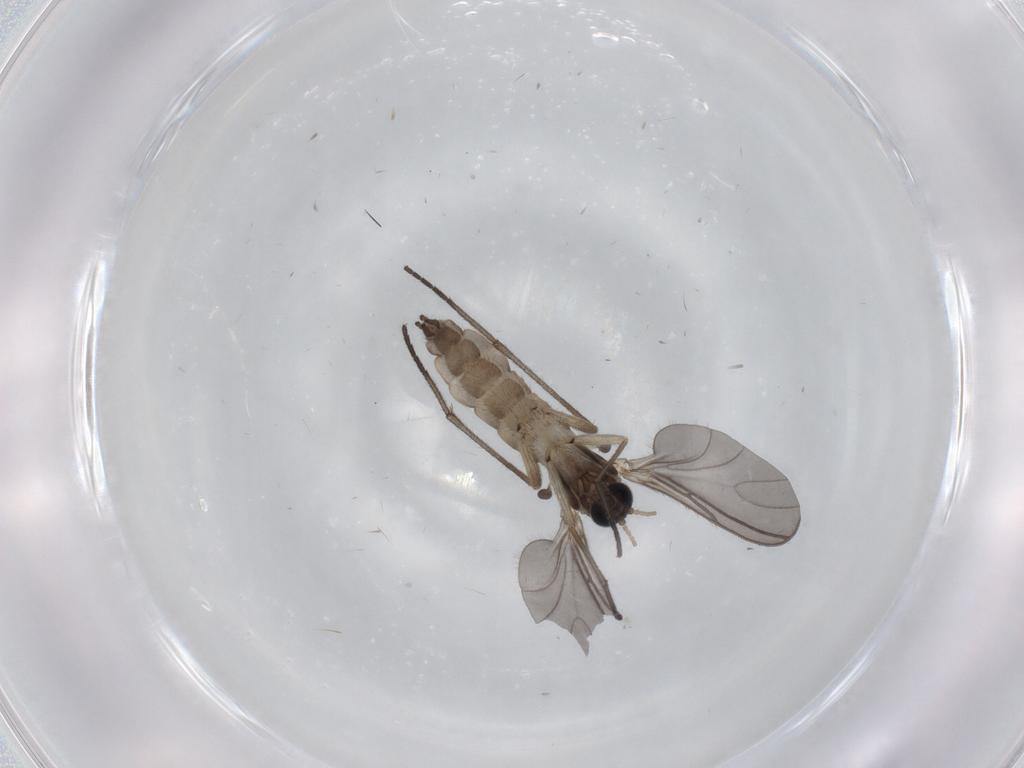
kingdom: Animalia
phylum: Arthropoda
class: Insecta
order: Diptera
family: Sciaridae
